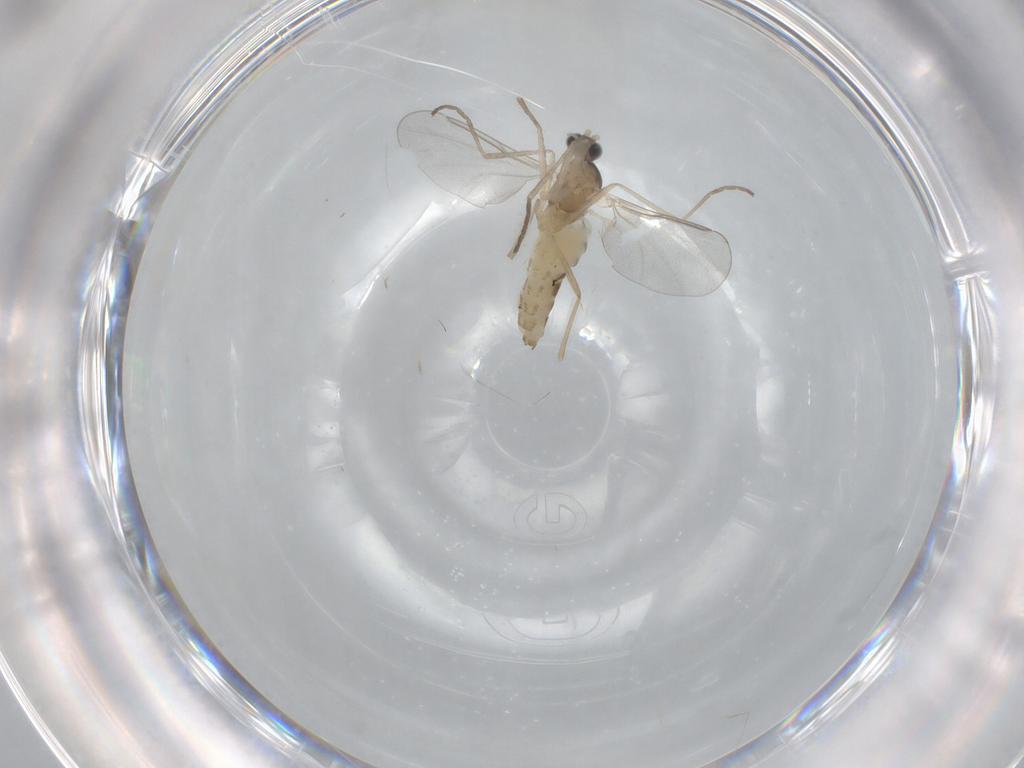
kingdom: Animalia
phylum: Arthropoda
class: Insecta
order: Diptera
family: Cecidomyiidae
